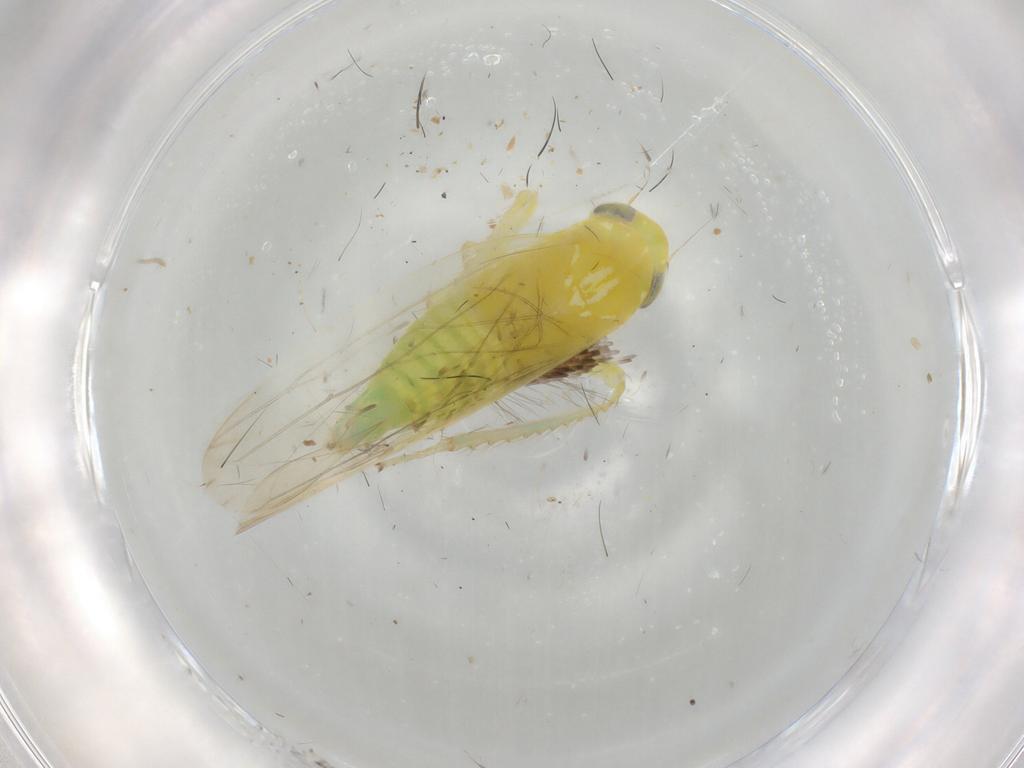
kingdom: Animalia
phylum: Arthropoda
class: Insecta
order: Hemiptera
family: Cicadellidae
